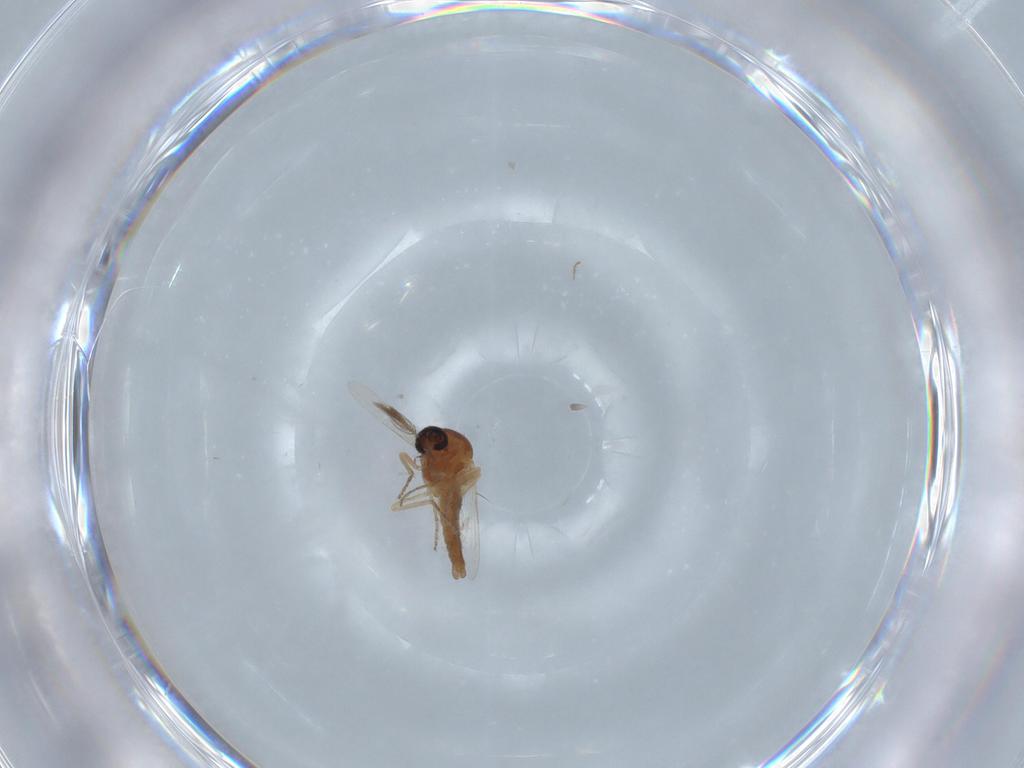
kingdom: Animalia
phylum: Arthropoda
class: Insecta
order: Diptera
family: Ceratopogonidae
